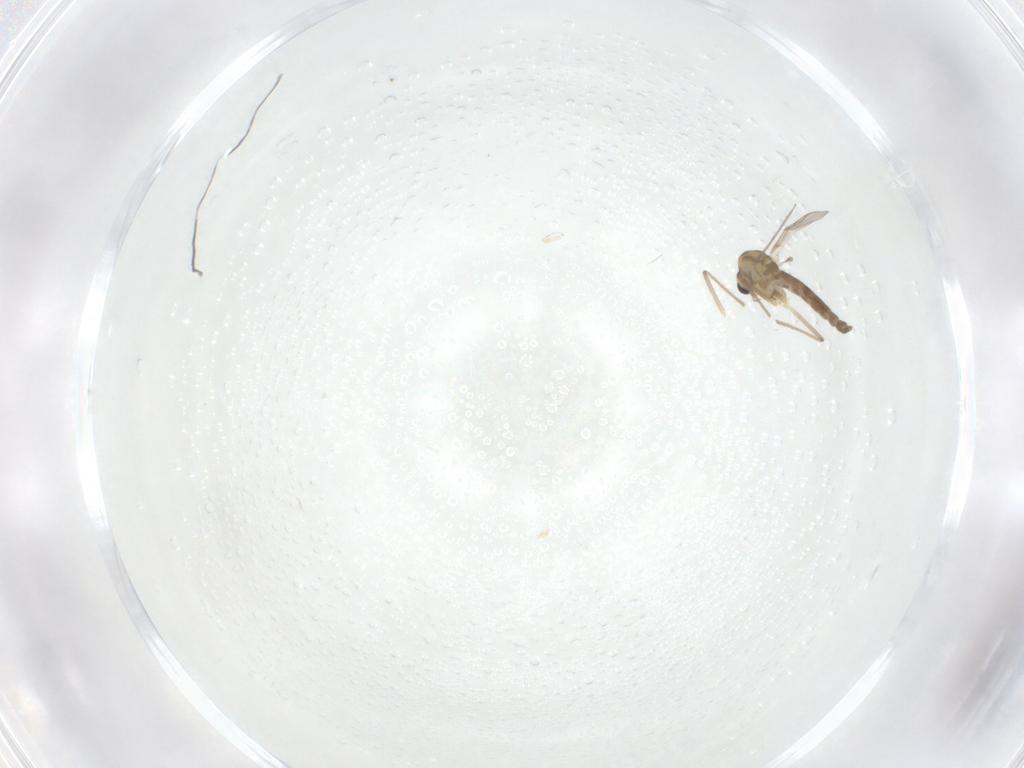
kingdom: Animalia
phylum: Arthropoda
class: Insecta
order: Diptera
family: Chironomidae
